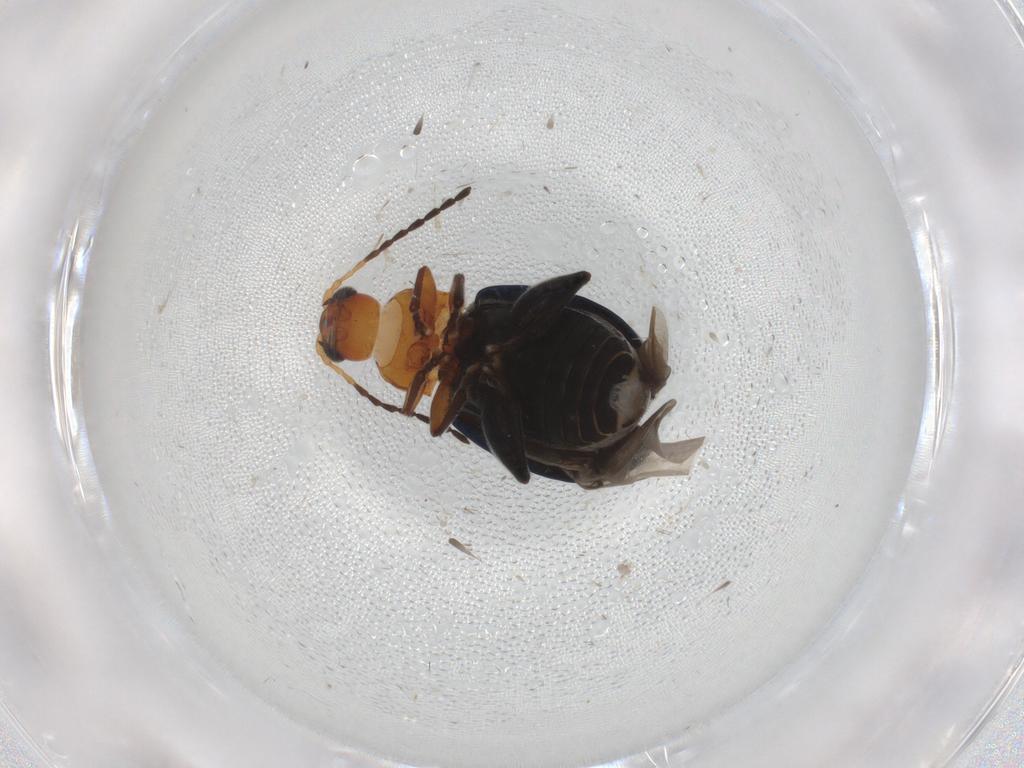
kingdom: Animalia
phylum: Arthropoda
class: Insecta
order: Coleoptera
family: Chrysomelidae
